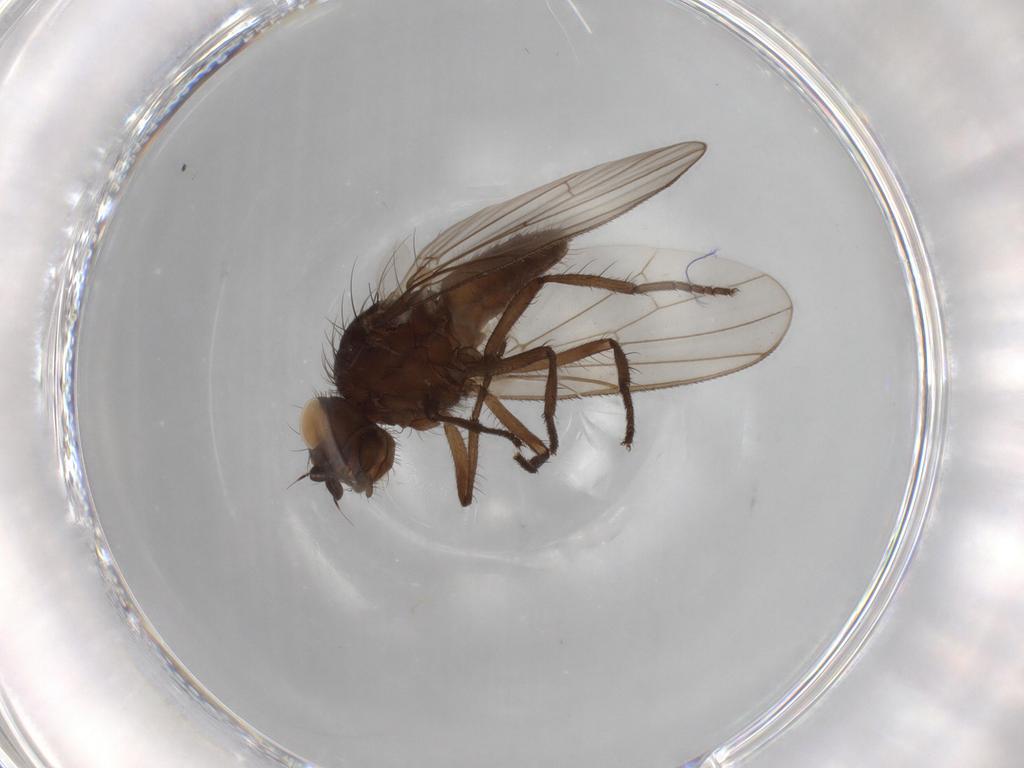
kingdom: Animalia
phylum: Arthropoda
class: Insecta
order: Diptera
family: Anthomyiidae
